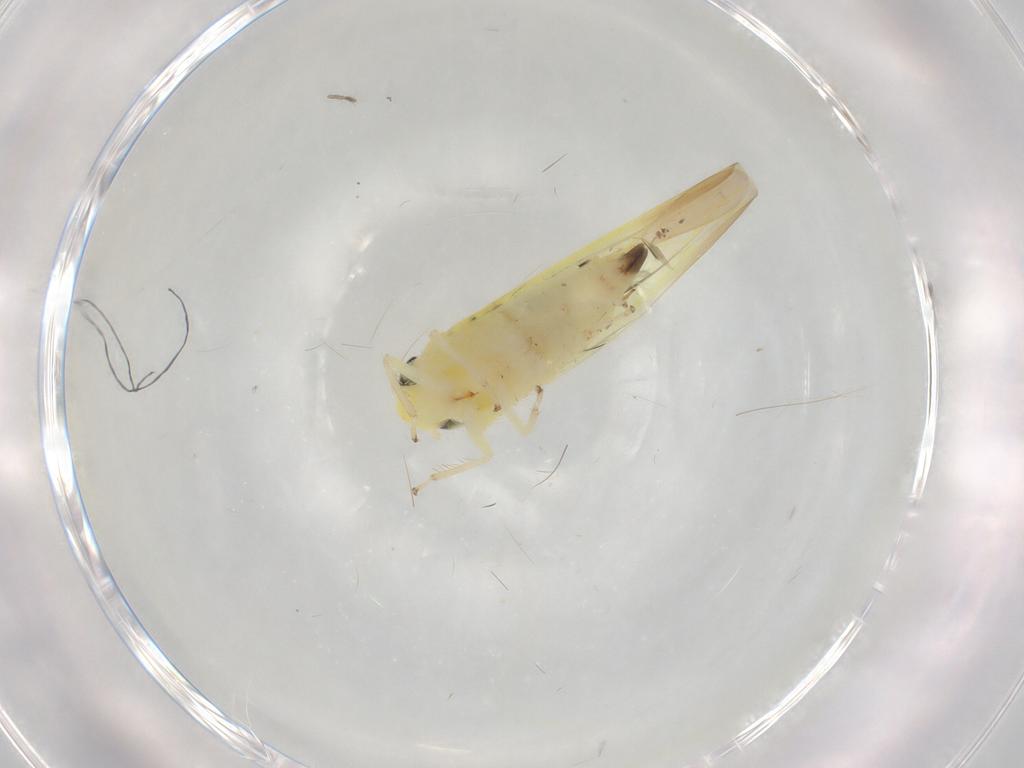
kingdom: Animalia
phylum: Arthropoda
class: Insecta
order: Hemiptera
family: Cicadellidae
